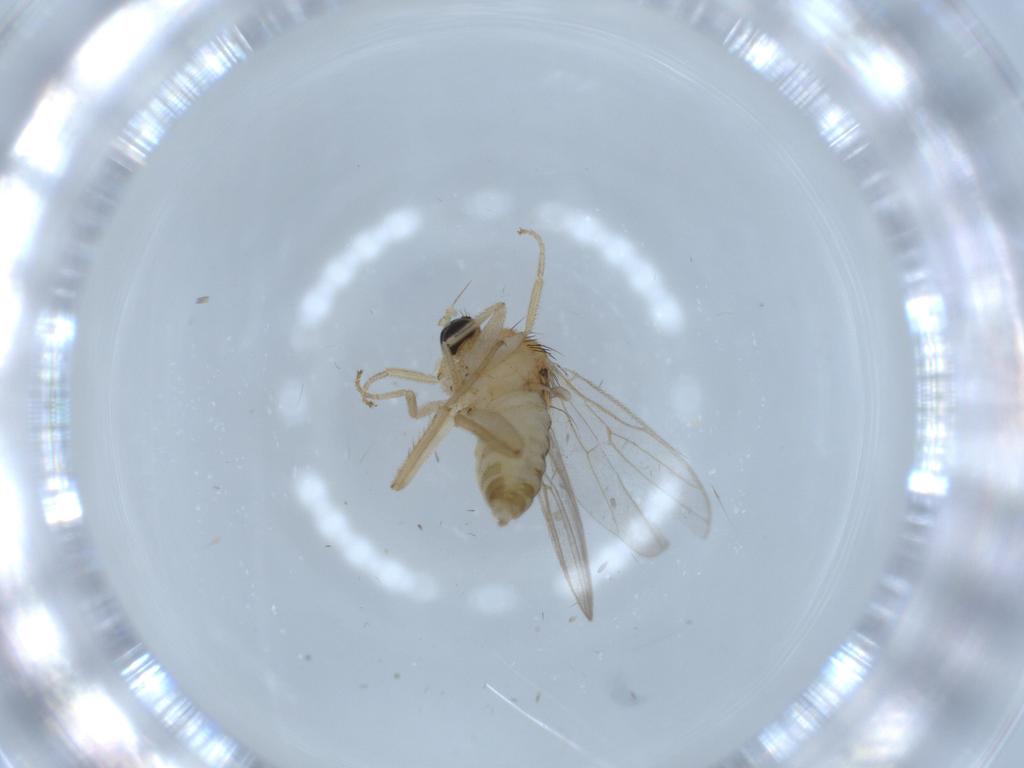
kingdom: Animalia
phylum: Arthropoda
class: Insecta
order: Diptera
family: Hybotidae
